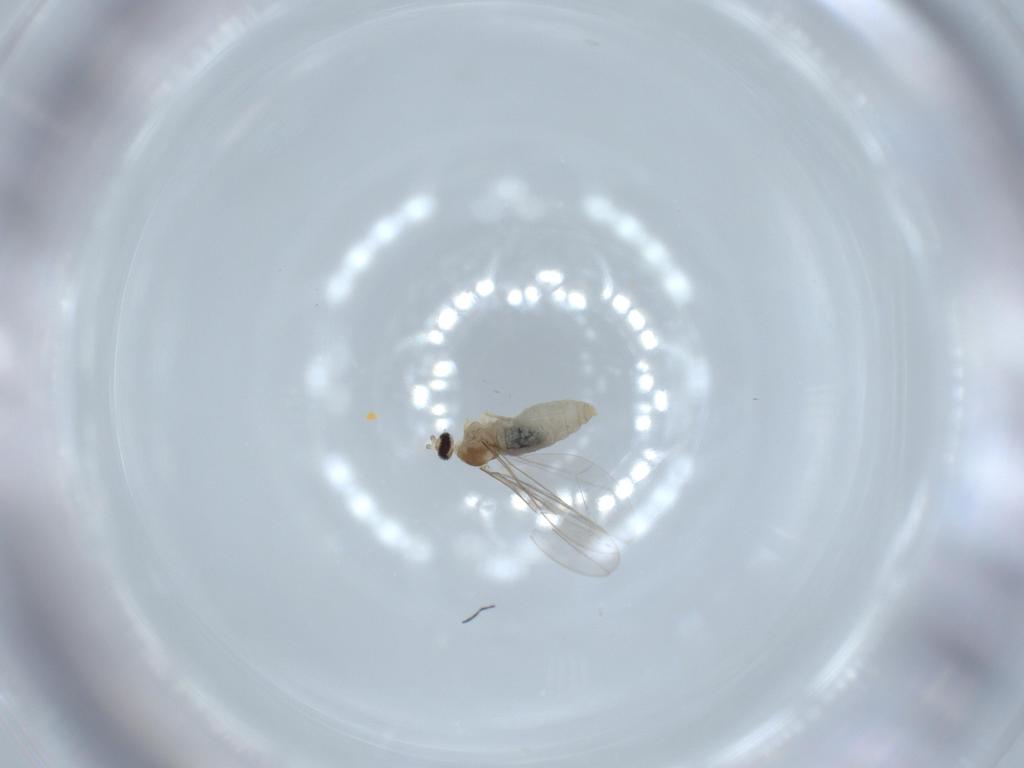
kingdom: Animalia
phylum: Arthropoda
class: Insecta
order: Diptera
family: Cecidomyiidae
